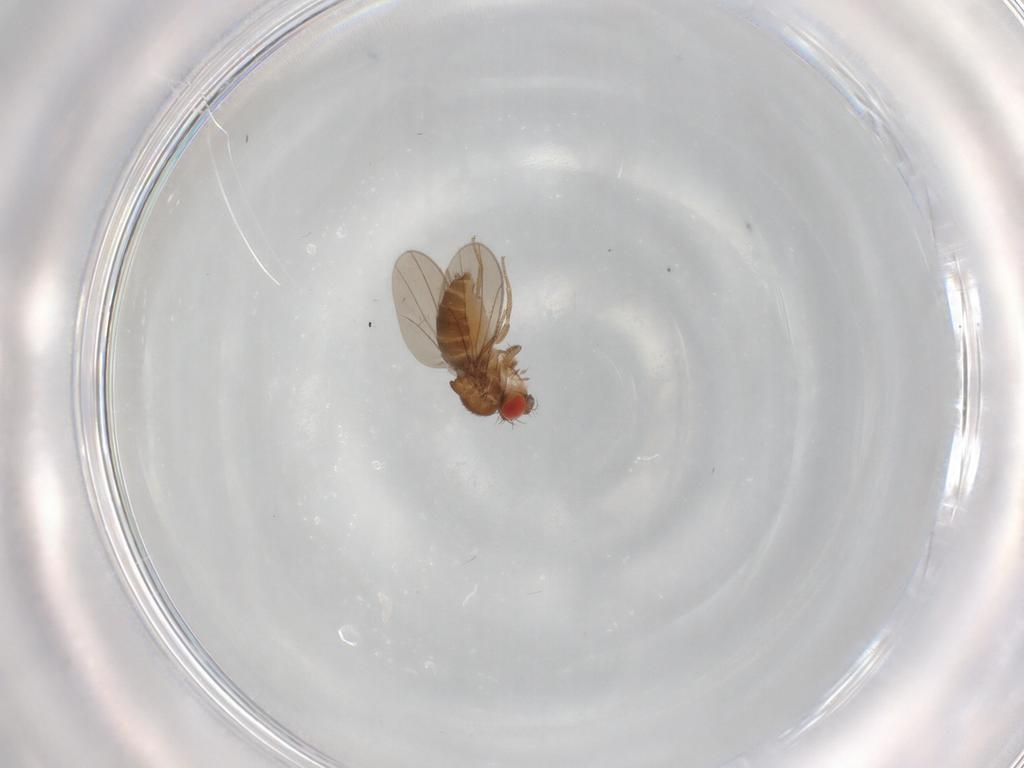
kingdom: Animalia
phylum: Arthropoda
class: Insecta
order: Diptera
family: Drosophilidae
